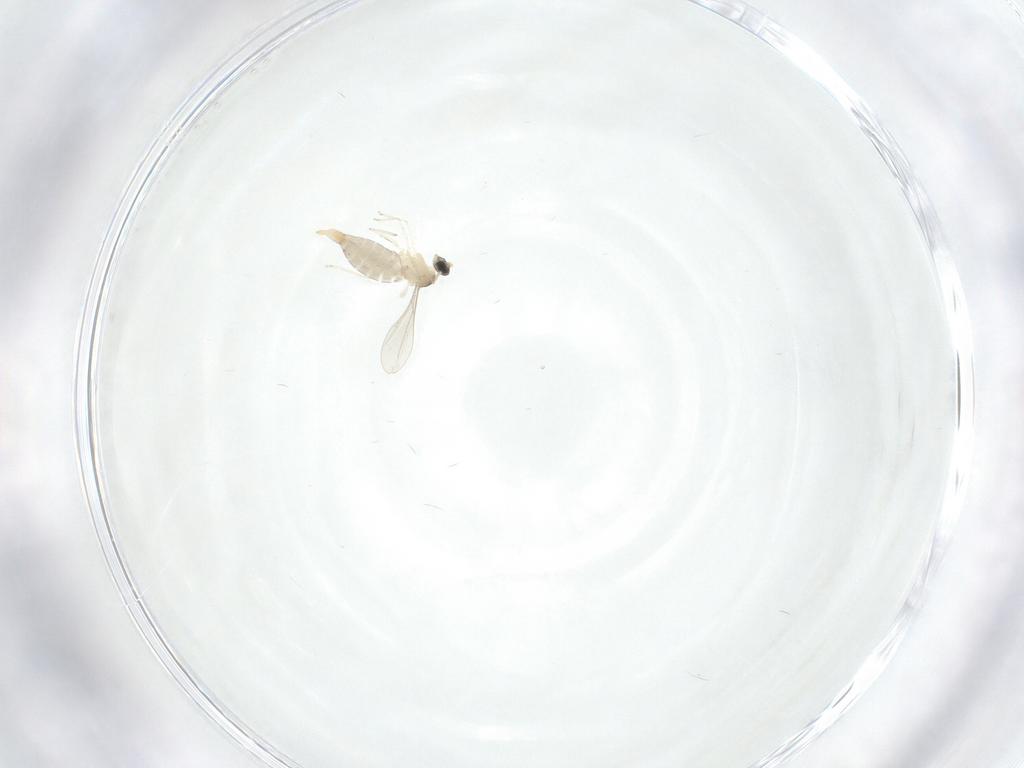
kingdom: Animalia
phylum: Arthropoda
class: Insecta
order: Diptera
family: Cecidomyiidae
